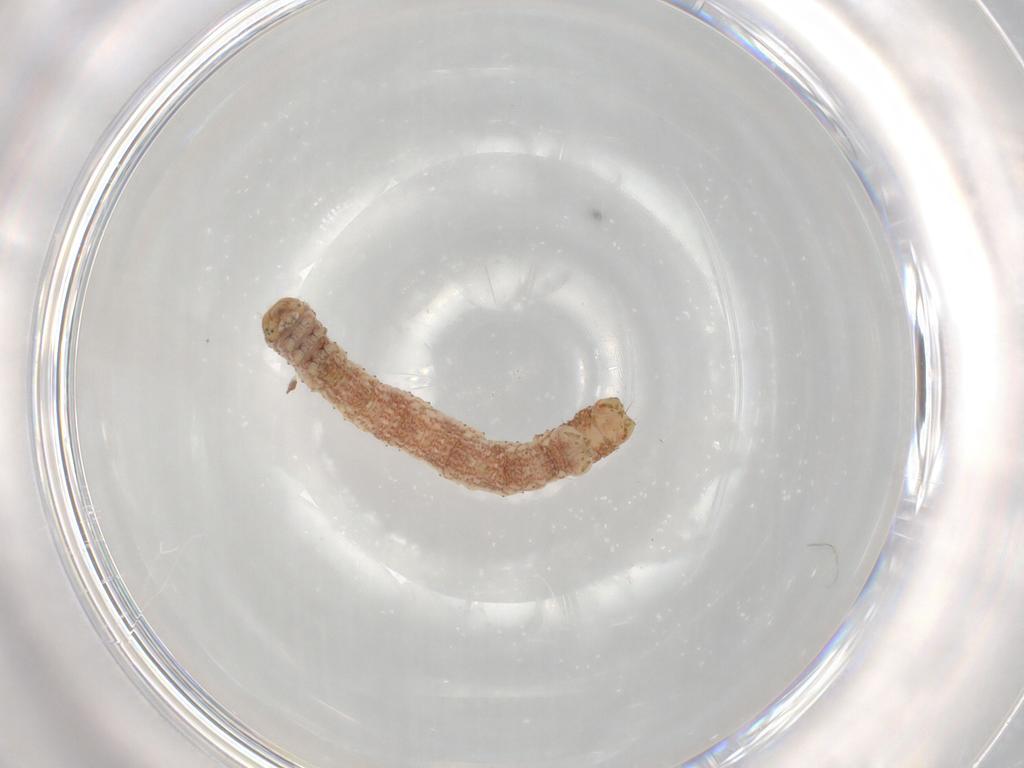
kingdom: Animalia
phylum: Arthropoda
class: Insecta
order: Lepidoptera
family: Geometridae
